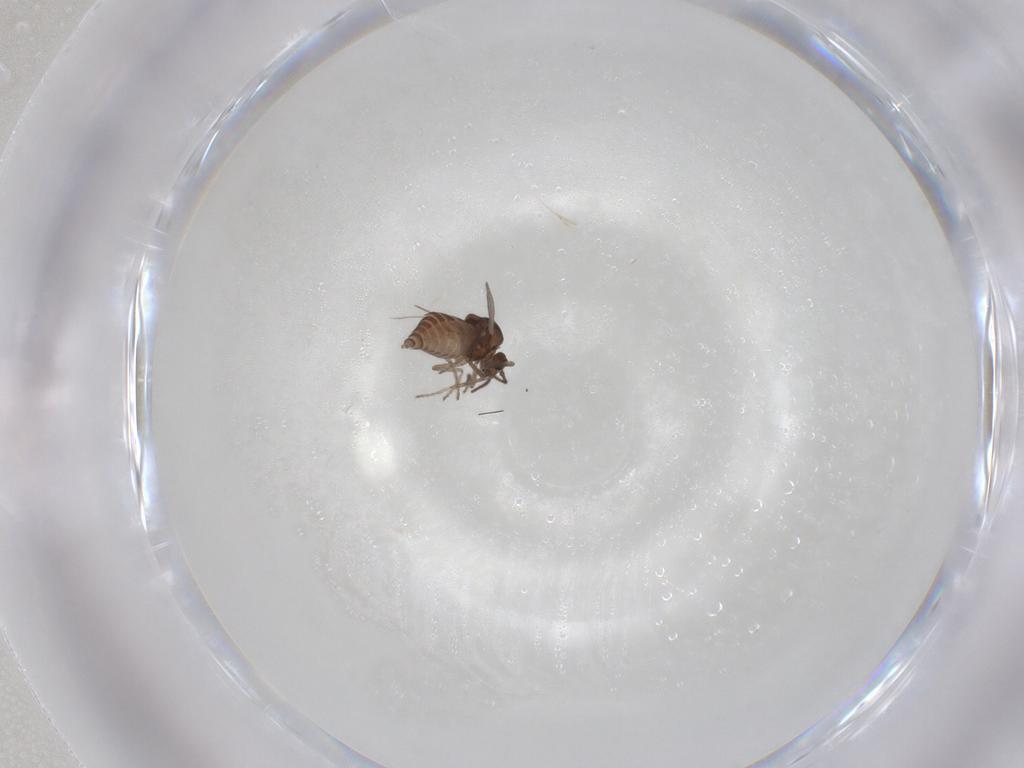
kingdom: Animalia
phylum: Arthropoda
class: Insecta
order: Diptera
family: Ceratopogonidae
